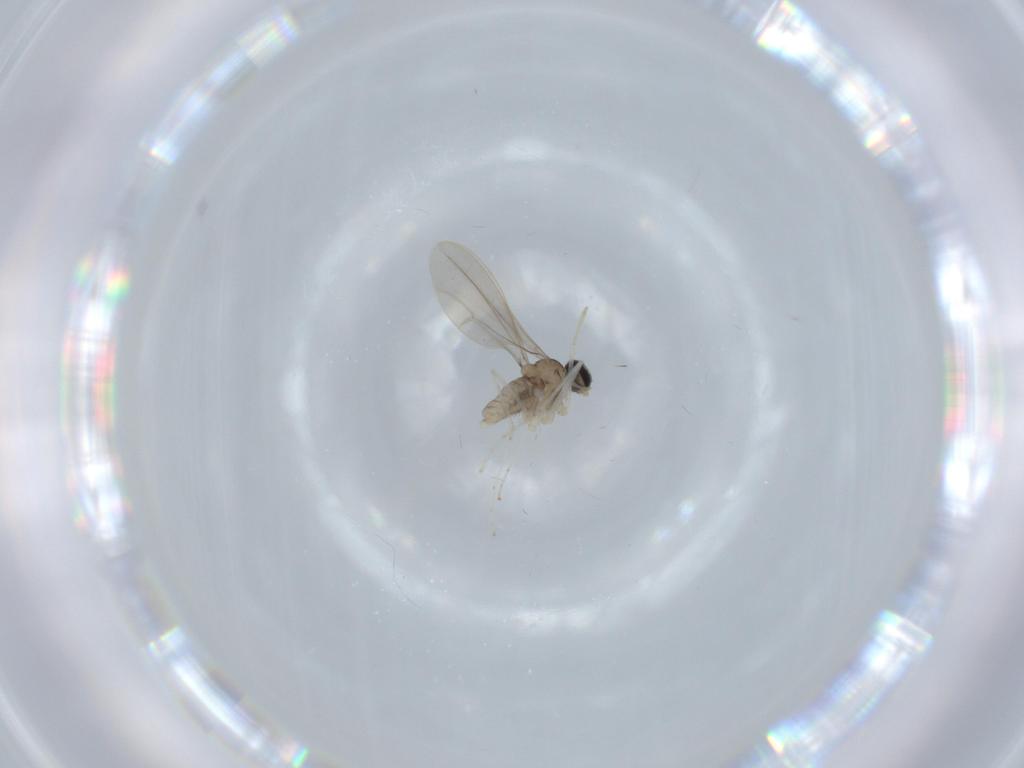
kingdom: Animalia
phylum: Arthropoda
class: Insecta
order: Diptera
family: Cecidomyiidae
